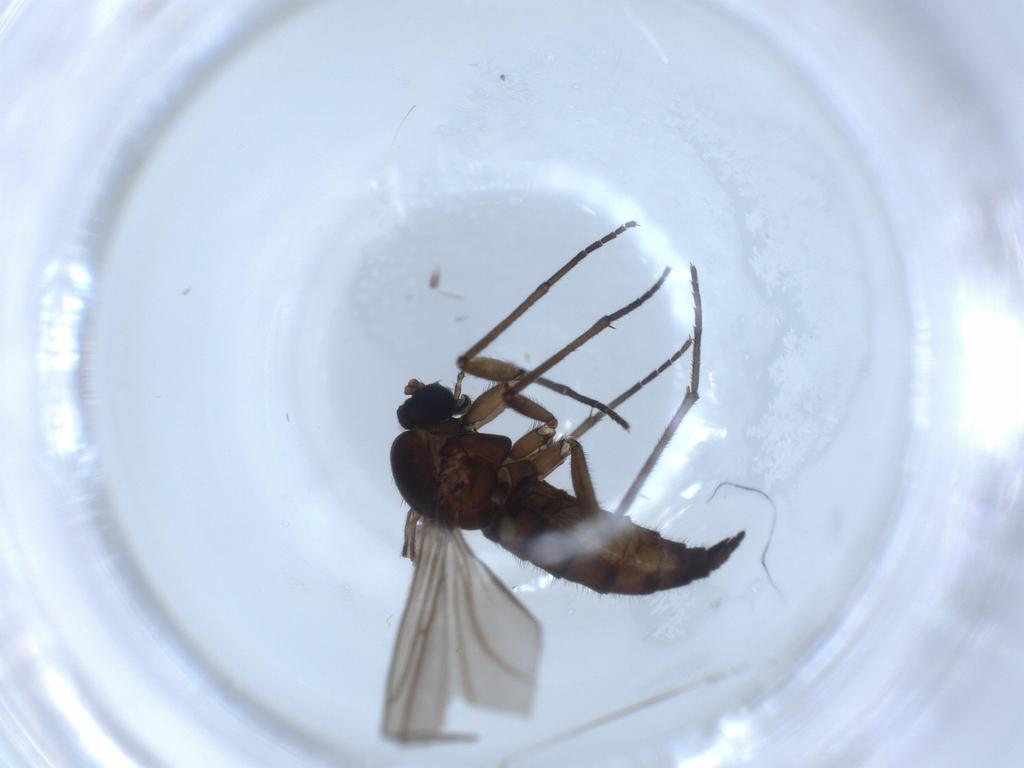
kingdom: Animalia
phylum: Arthropoda
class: Insecta
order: Diptera
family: Sciaridae
